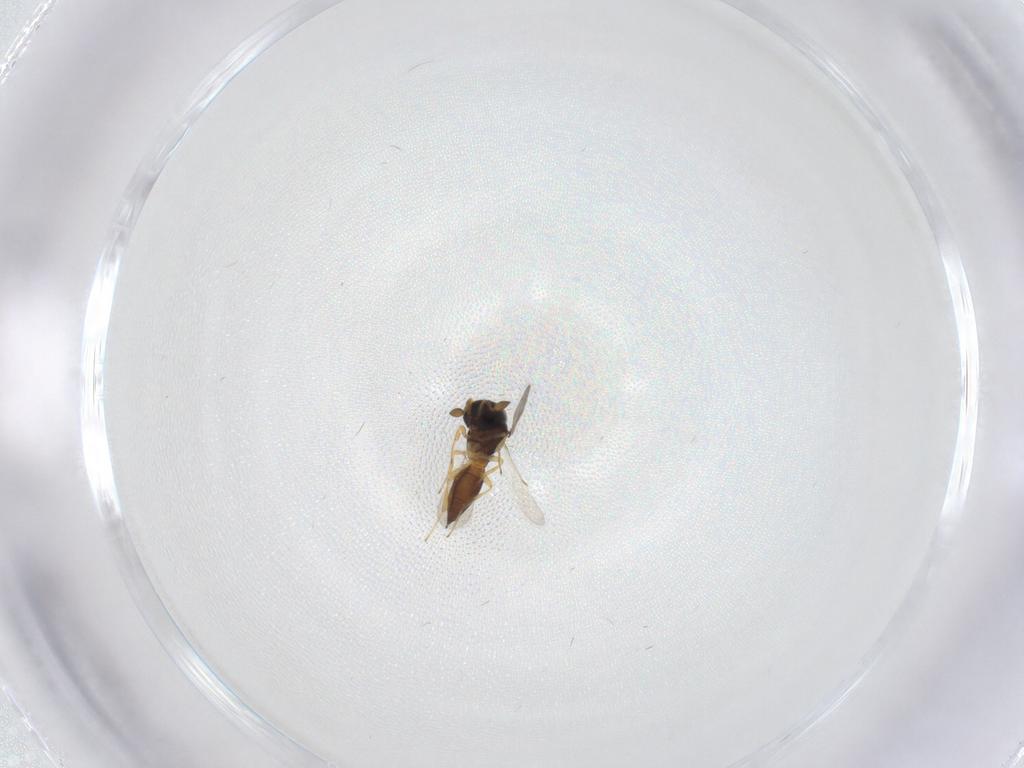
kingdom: Animalia
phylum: Arthropoda
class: Insecta
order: Hymenoptera
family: Scelionidae
